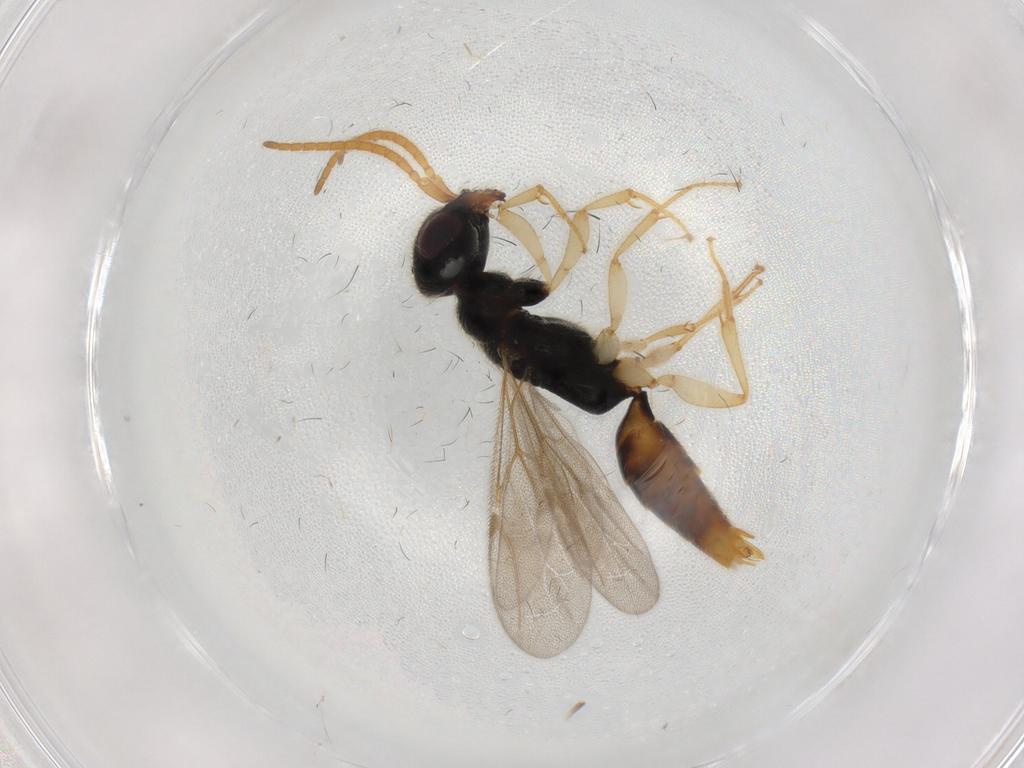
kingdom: Animalia
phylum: Arthropoda
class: Insecta
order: Hymenoptera
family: Bethylidae
